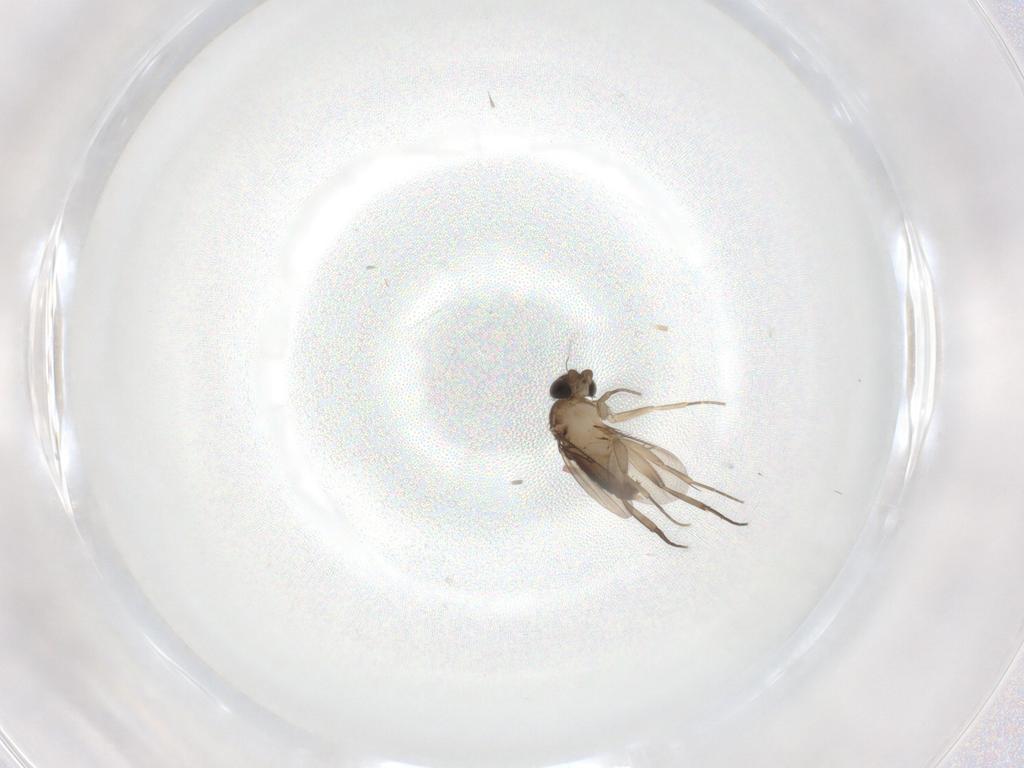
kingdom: Animalia
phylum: Arthropoda
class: Insecta
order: Diptera
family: Phoridae
